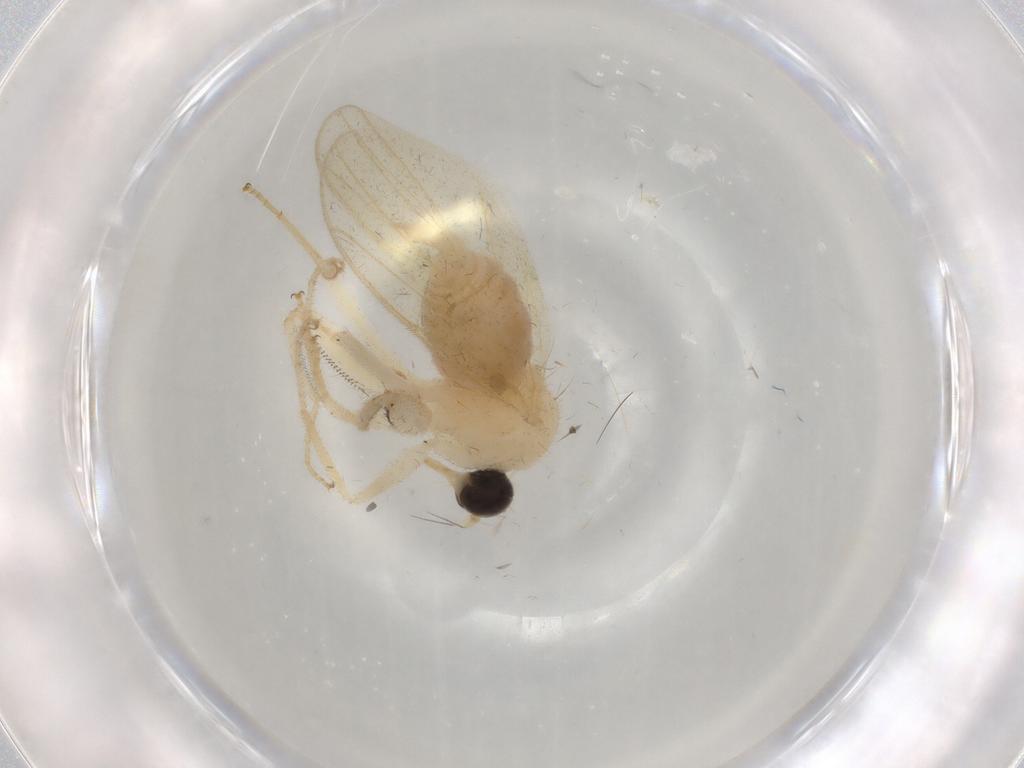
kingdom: Animalia
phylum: Arthropoda
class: Insecta
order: Diptera
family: Hybotidae
